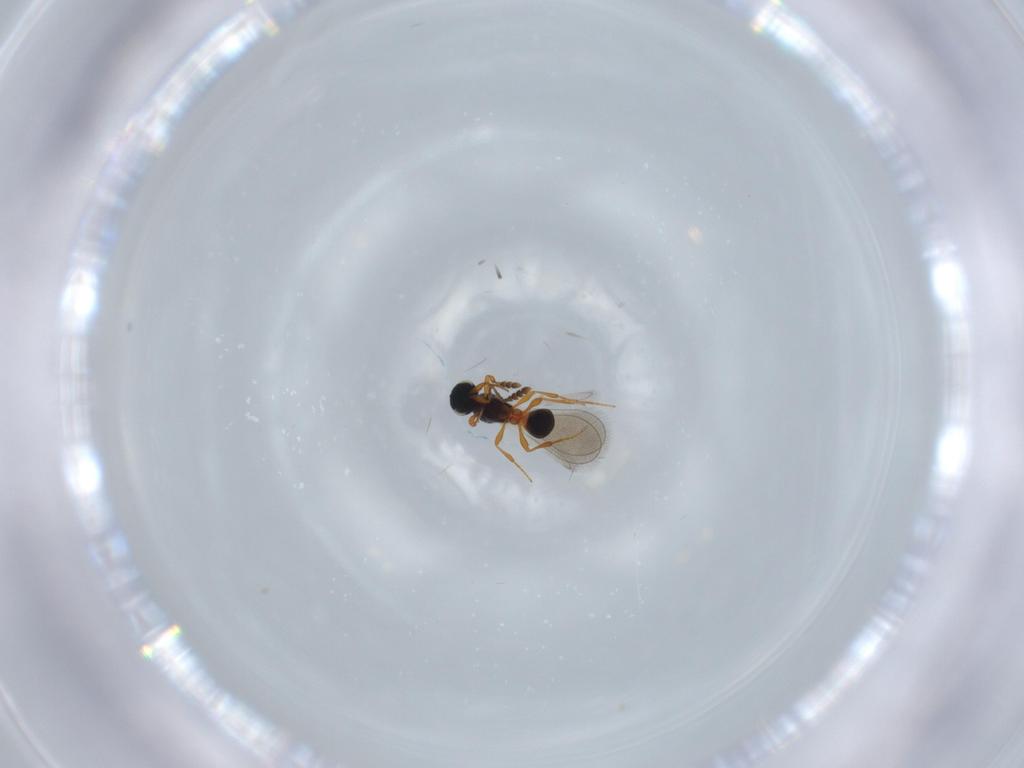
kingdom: Animalia
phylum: Arthropoda
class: Insecta
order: Hymenoptera
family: Platygastridae
